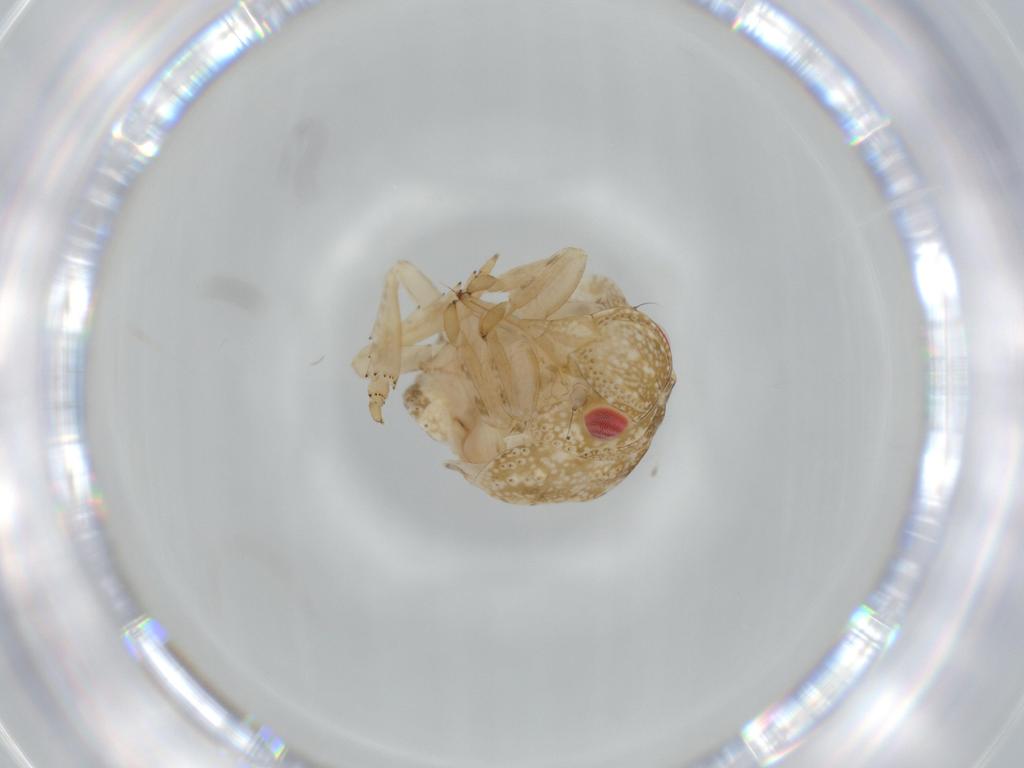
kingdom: Animalia
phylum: Arthropoda
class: Insecta
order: Hemiptera
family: Acanaloniidae
